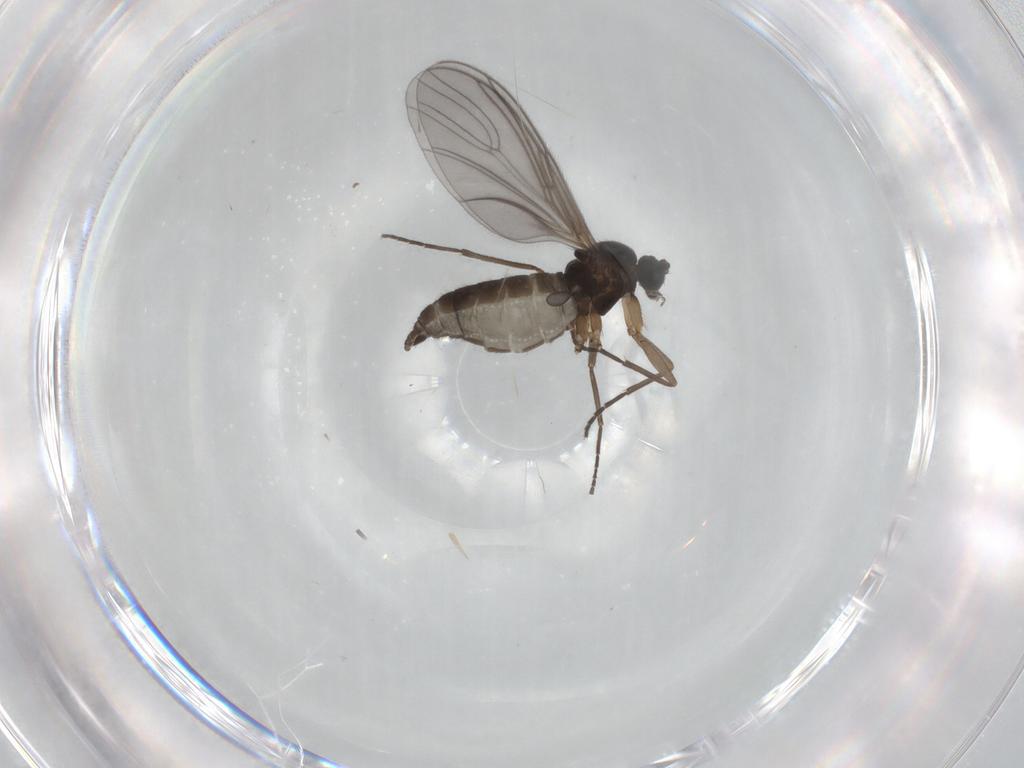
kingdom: Animalia
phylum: Arthropoda
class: Insecta
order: Diptera
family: Sciaridae
